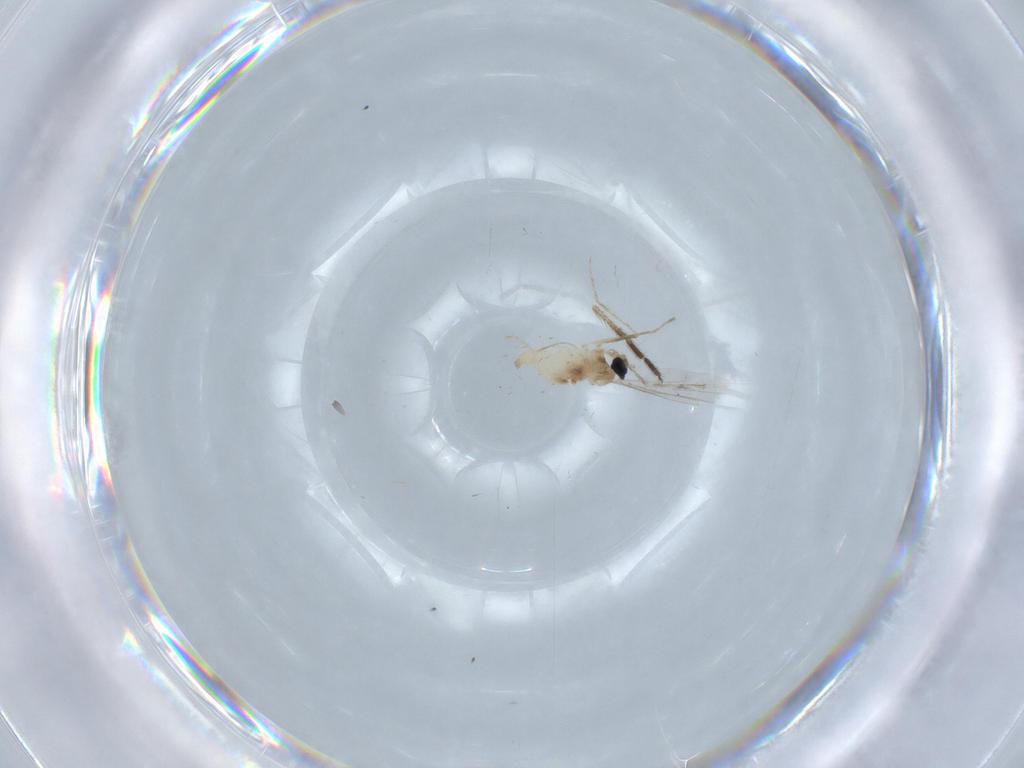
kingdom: Animalia
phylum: Arthropoda
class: Insecta
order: Diptera
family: Cecidomyiidae
